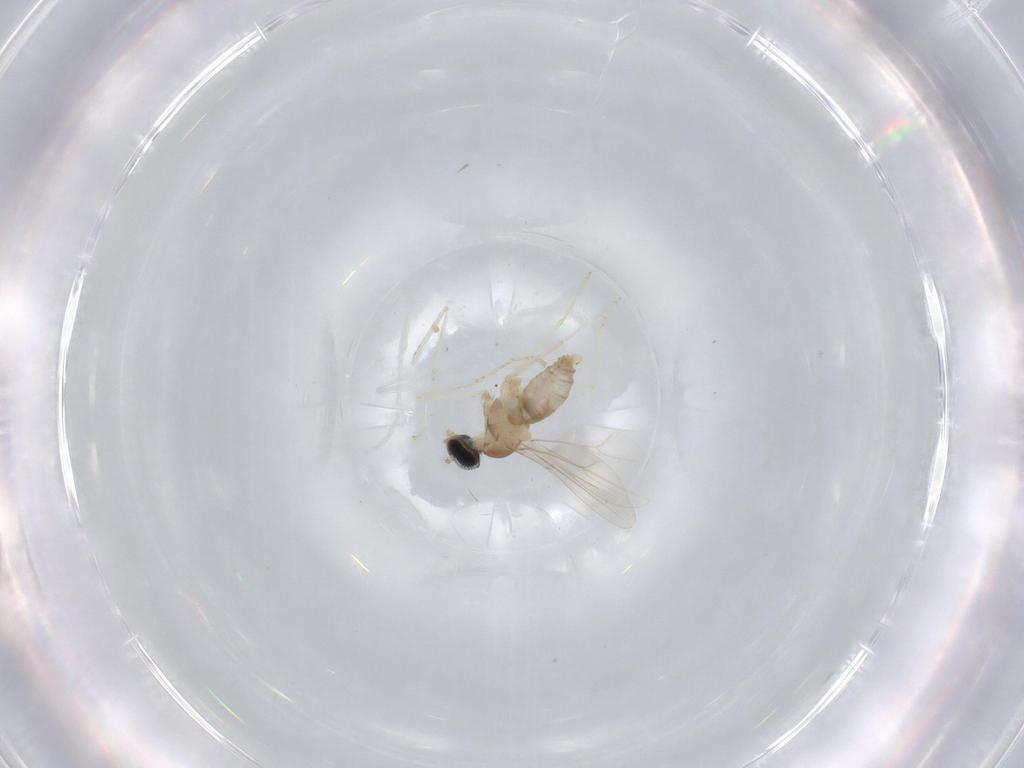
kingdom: Animalia
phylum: Arthropoda
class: Insecta
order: Diptera
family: Cecidomyiidae
